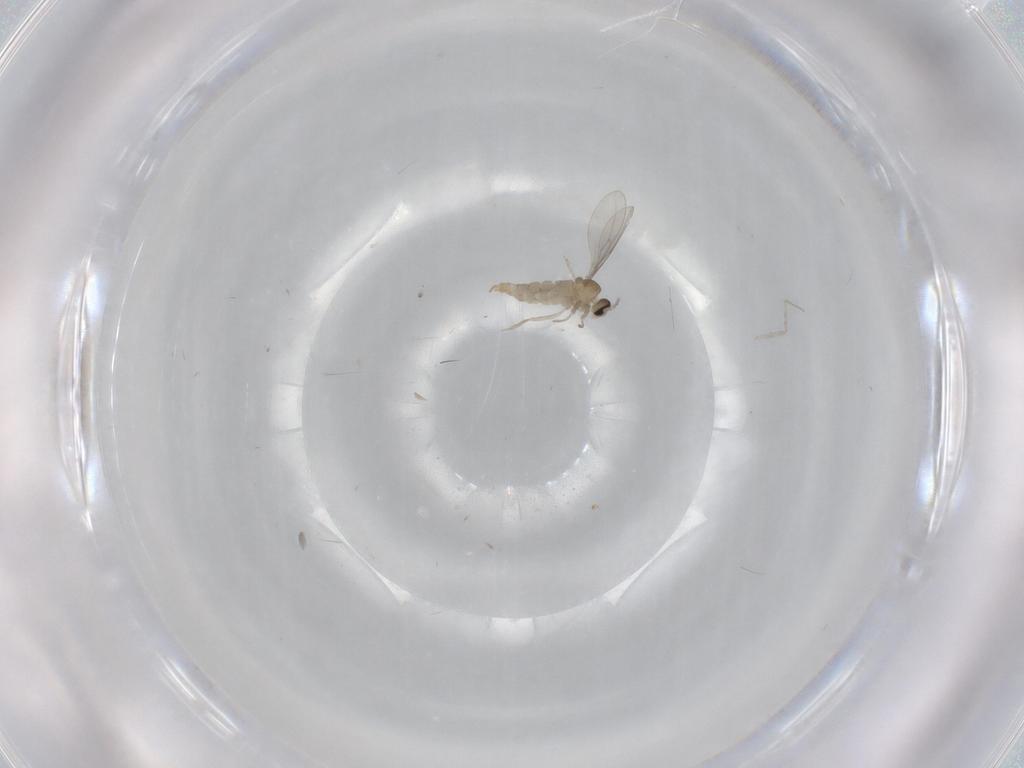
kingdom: Animalia
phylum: Arthropoda
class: Insecta
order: Diptera
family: Cecidomyiidae
